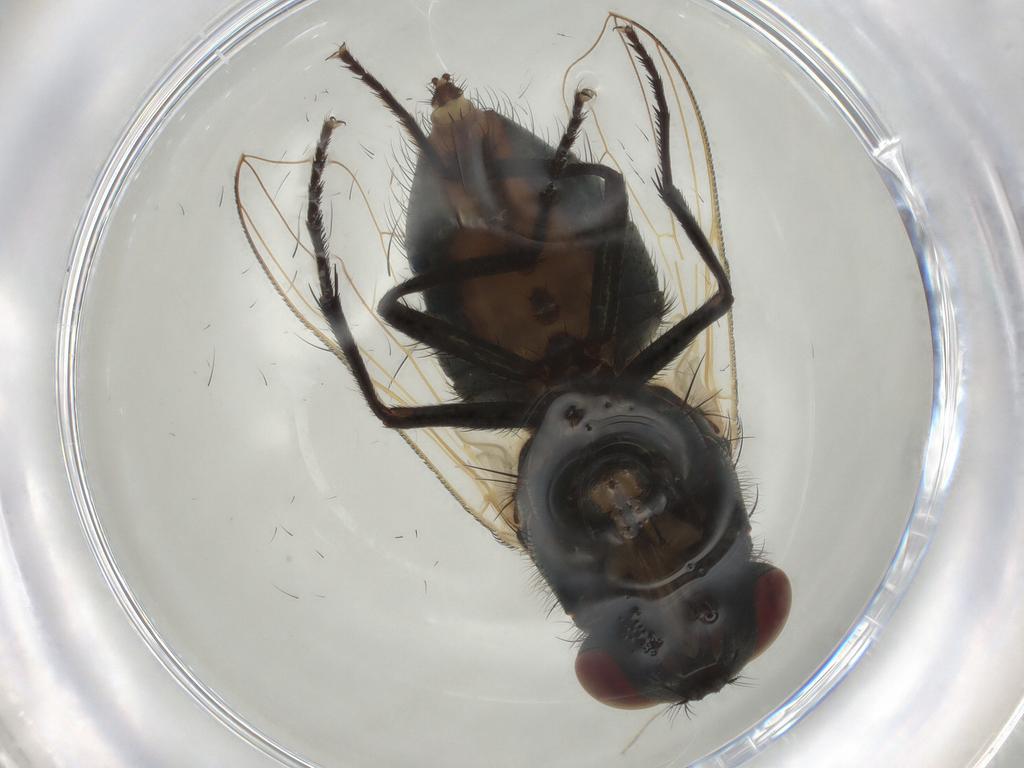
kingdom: Animalia
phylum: Arthropoda
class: Insecta
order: Diptera
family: Muscidae
